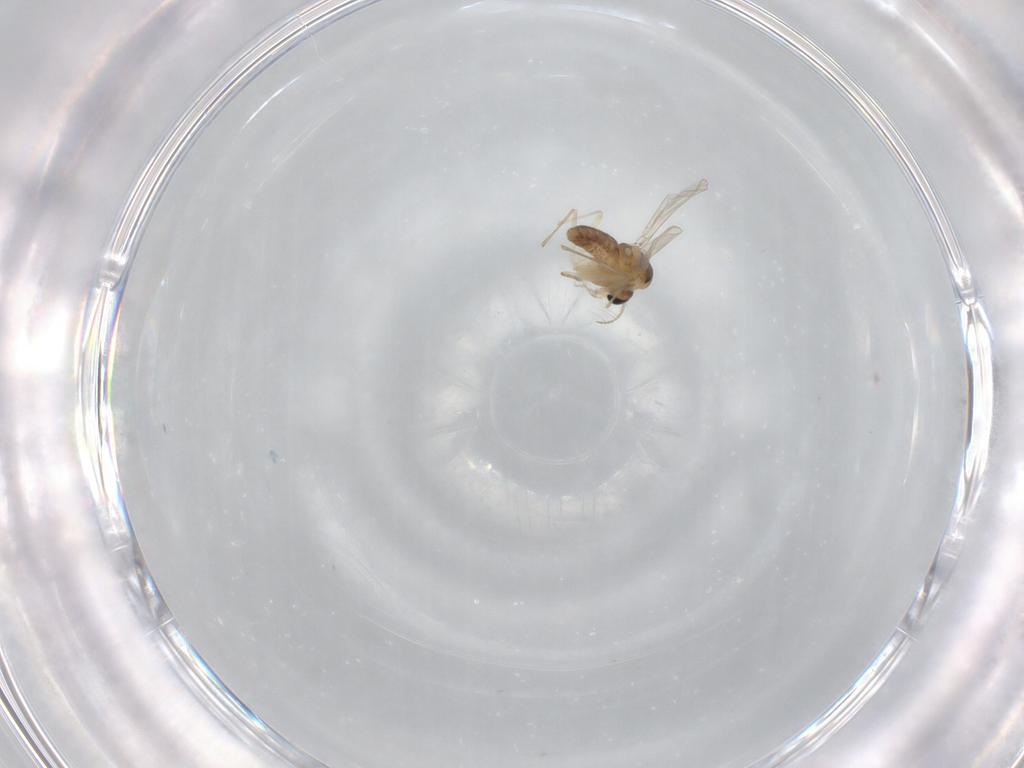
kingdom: Animalia
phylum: Arthropoda
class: Insecta
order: Diptera
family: Chironomidae
